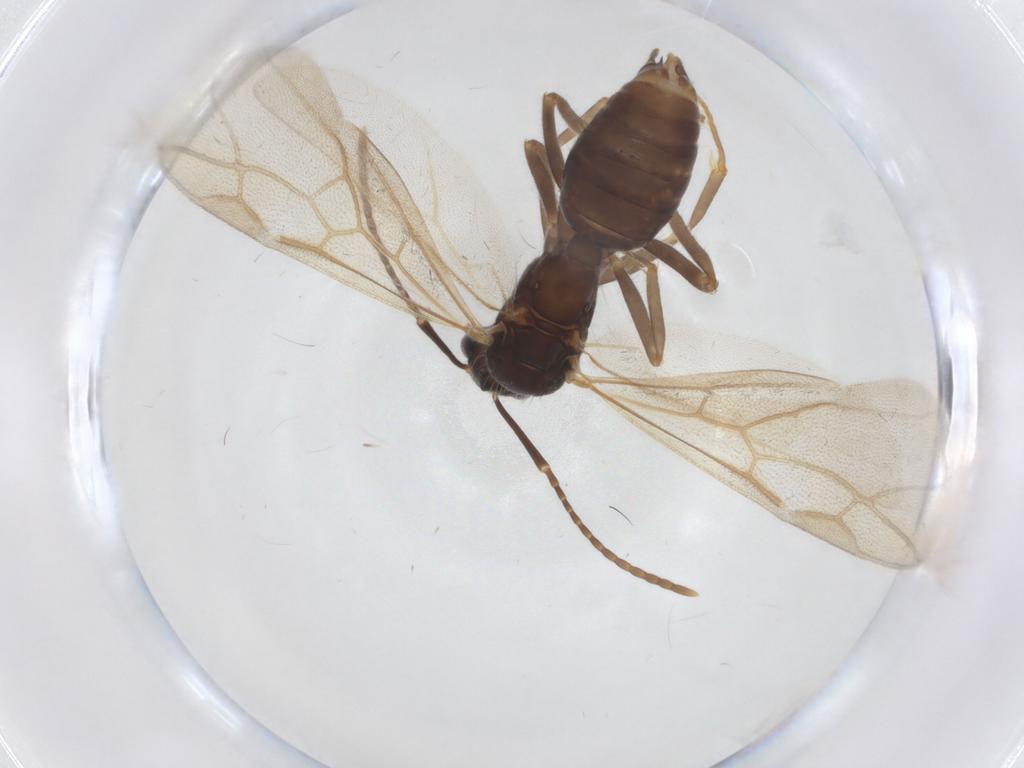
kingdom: Animalia
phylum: Arthropoda
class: Insecta
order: Hymenoptera
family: Formicidae
